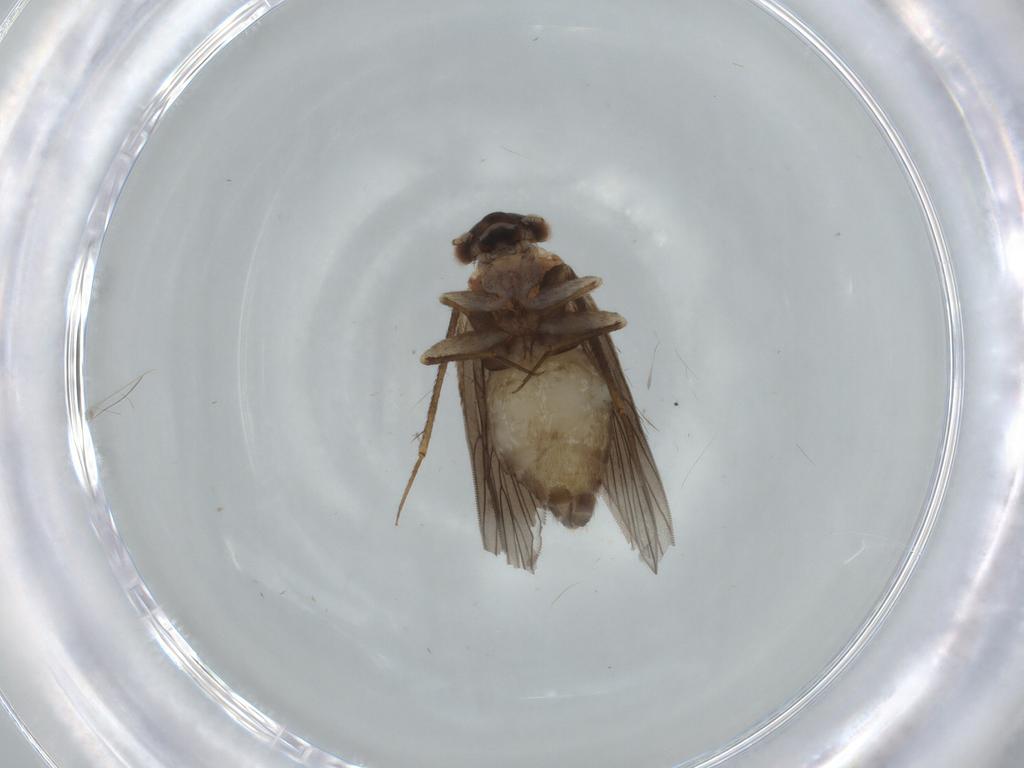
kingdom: Animalia
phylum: Arthropoda
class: Insecta
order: Psocodea
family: Lepidopsocidae
